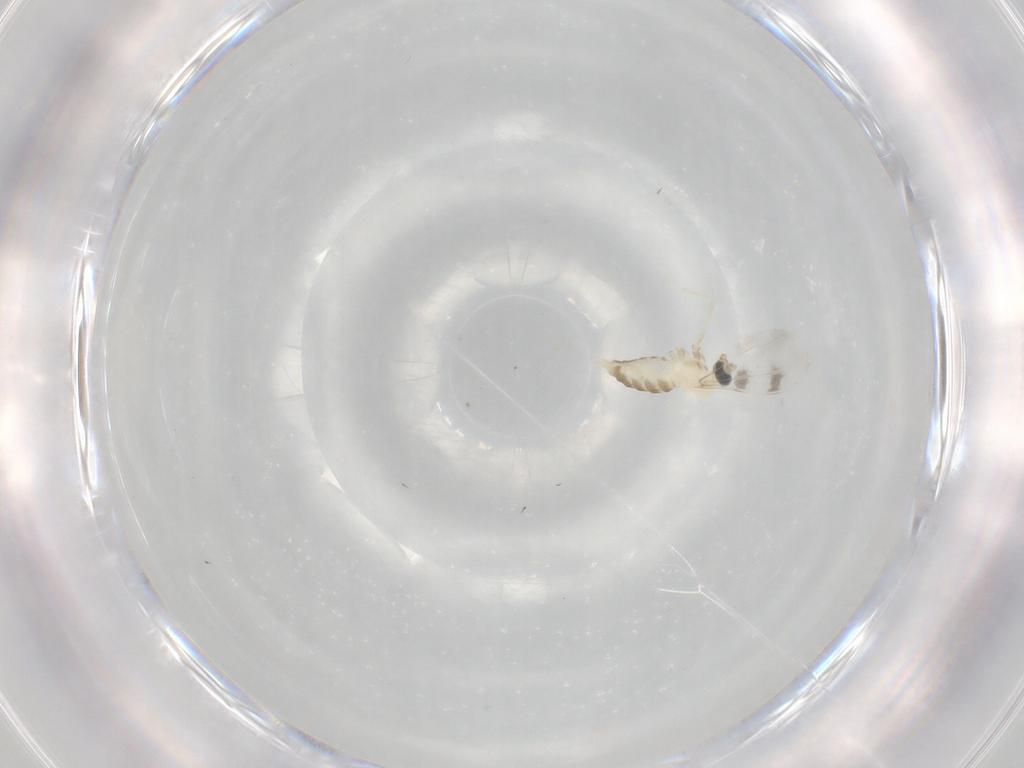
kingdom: Animalia
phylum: Arthropoda
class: Insecta
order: Diptera
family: Cecidomyiidae
